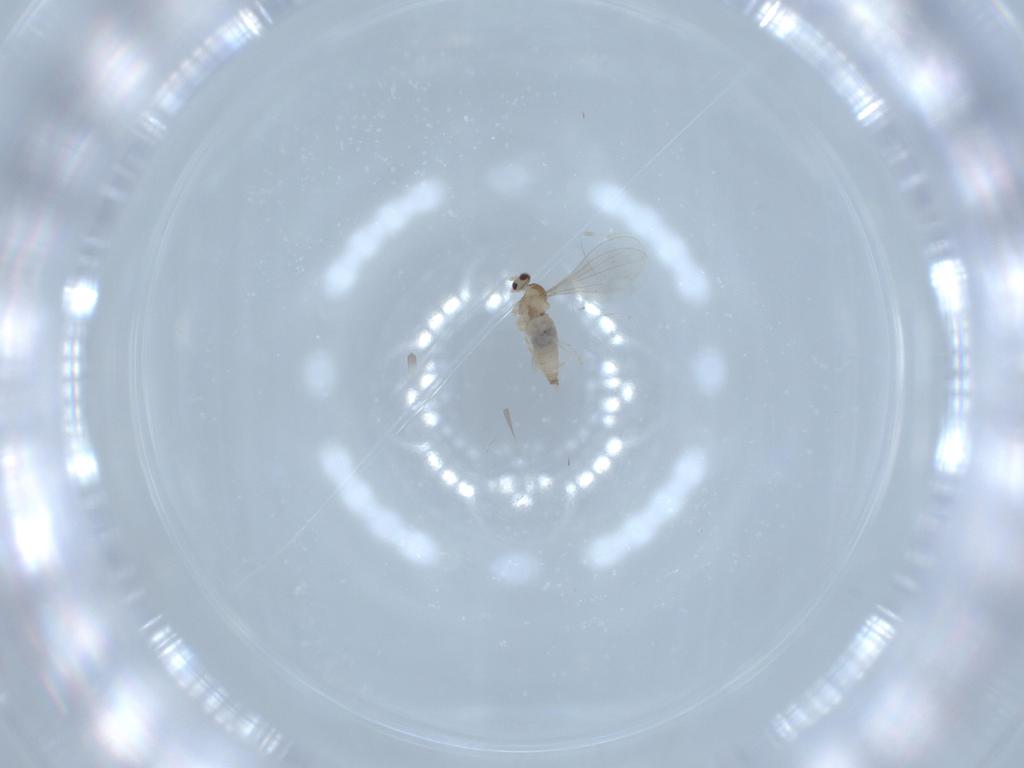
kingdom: Animalia
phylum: Arthropoda
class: Insecta
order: Diptera
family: Cecidomyiidae
